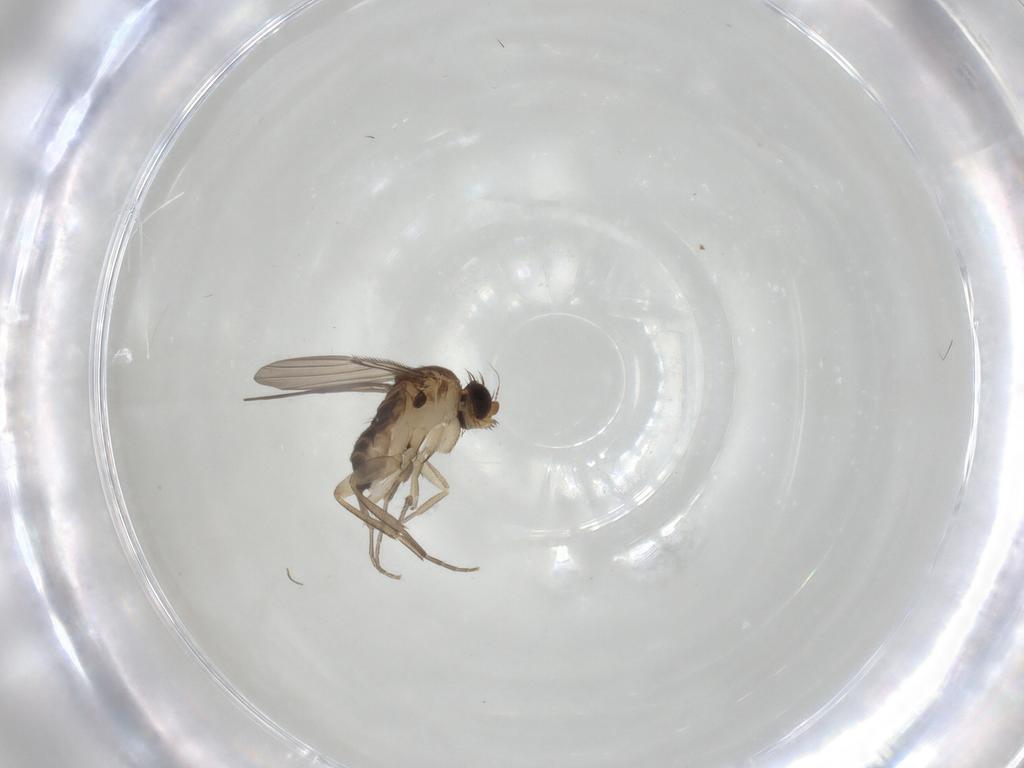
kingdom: Animalia
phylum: Arthropoda
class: Insecta
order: Diptera
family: Phoridae
